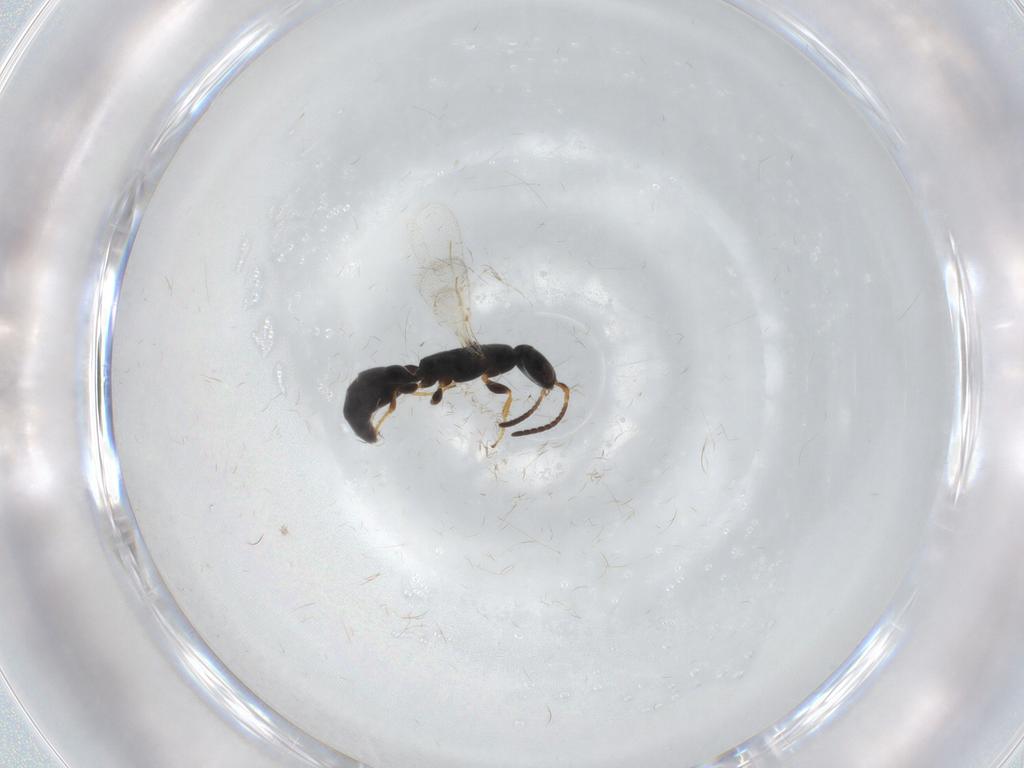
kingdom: Animalia
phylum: Arthropoda
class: Insecta
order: Hymenoptera
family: Bethylidae
